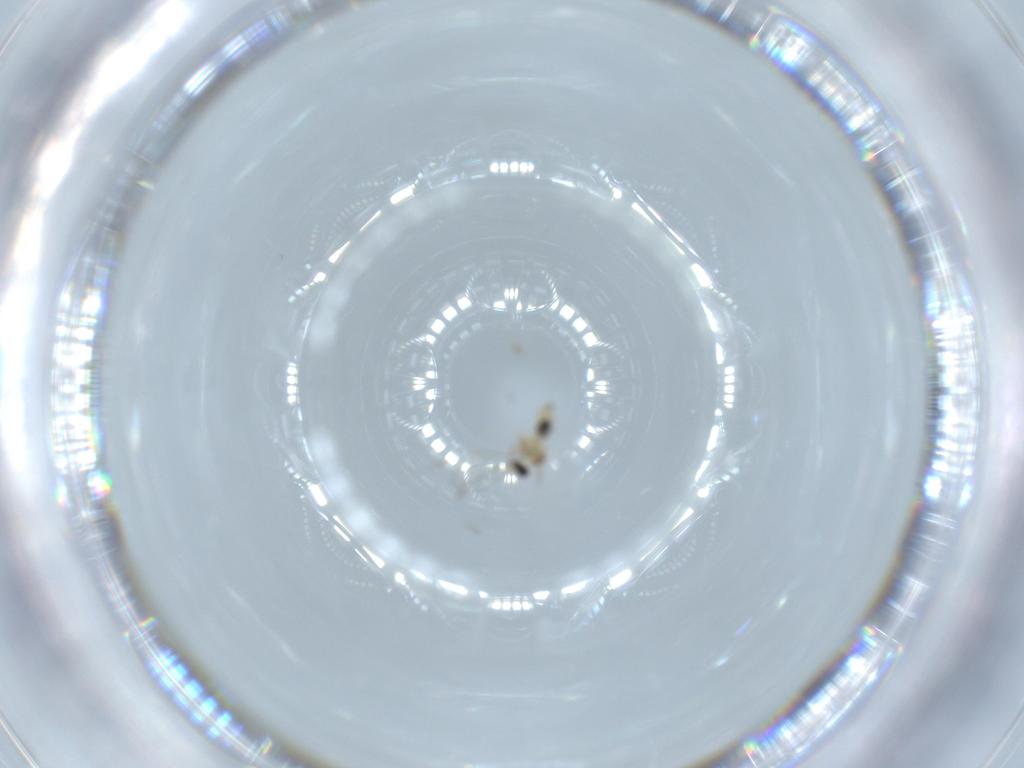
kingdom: Animalia
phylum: Arthropoda
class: Insecta
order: Diptera
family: Cecidomyiidae
